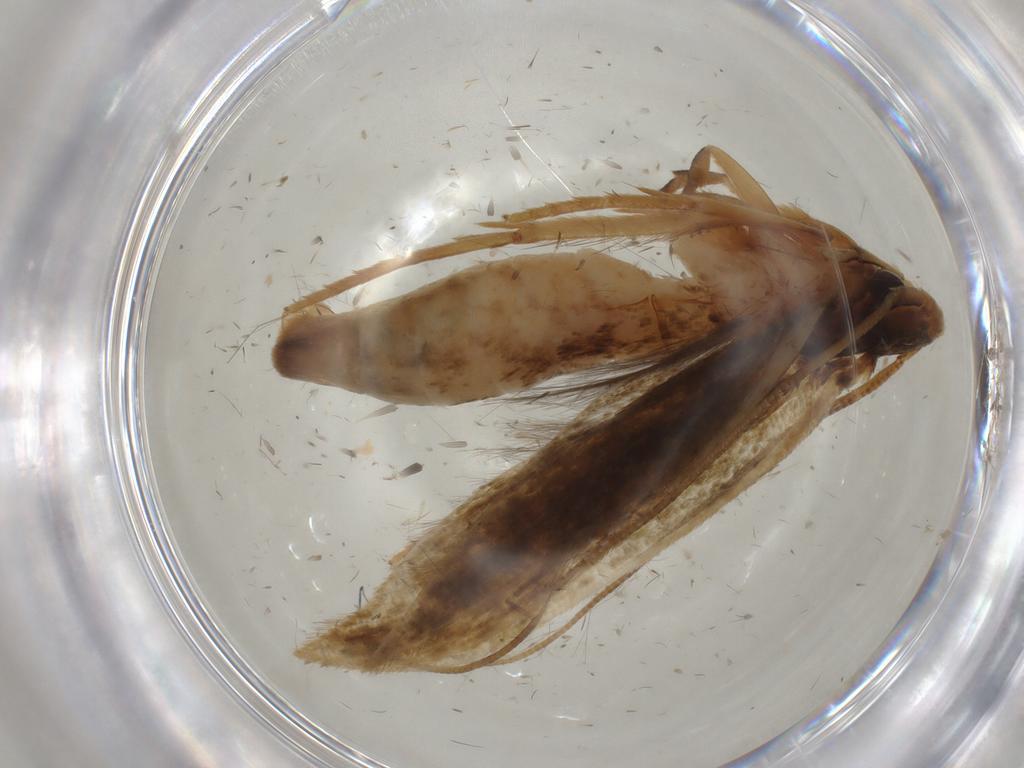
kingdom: Animalia
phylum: Arthropoda
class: Insecta
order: Lepidoptera
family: Tineidae
